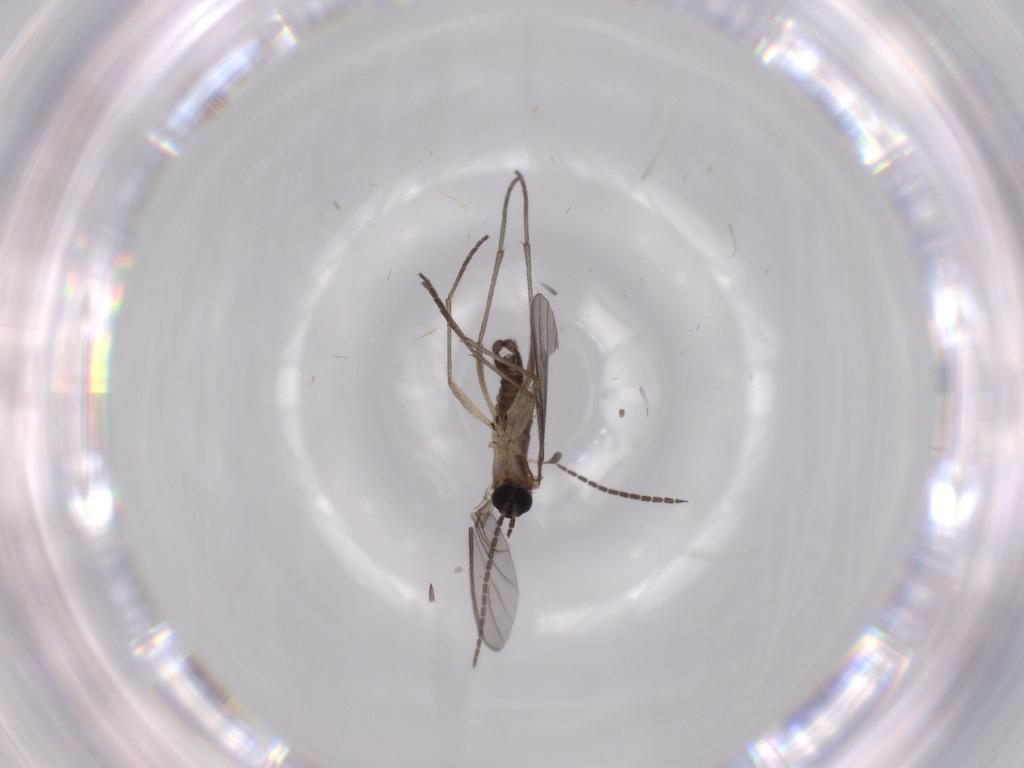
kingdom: Animalia
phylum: Arthropoda
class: Insecta
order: Diptera
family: Sciaridae
